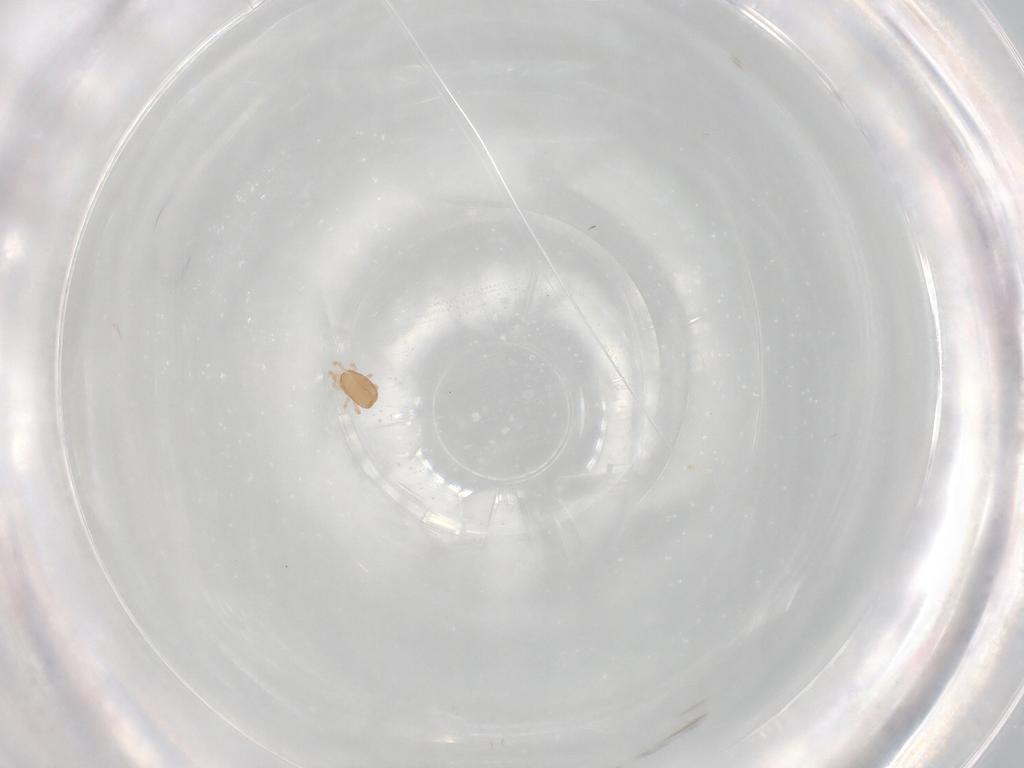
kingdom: Animalia
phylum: Arthropoda
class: Arachnida
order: Mesostigmata
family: Ascidae
